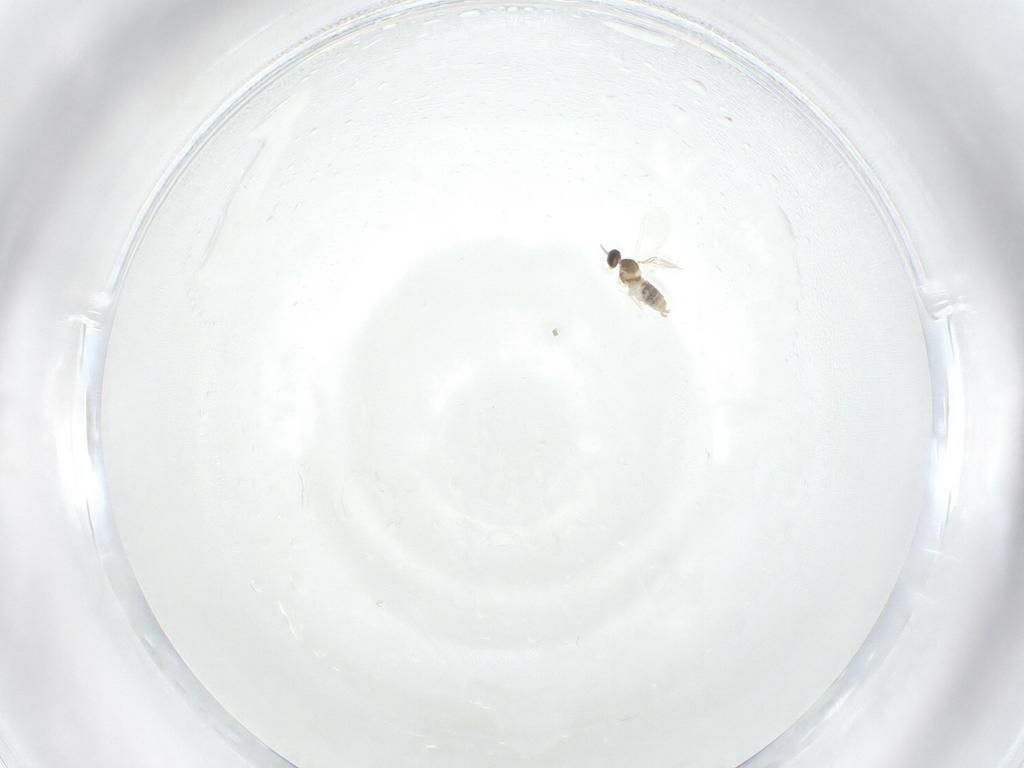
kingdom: Animalia
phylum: Arthropoda
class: Insecta
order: Diptera
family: Cecidomyiidae
